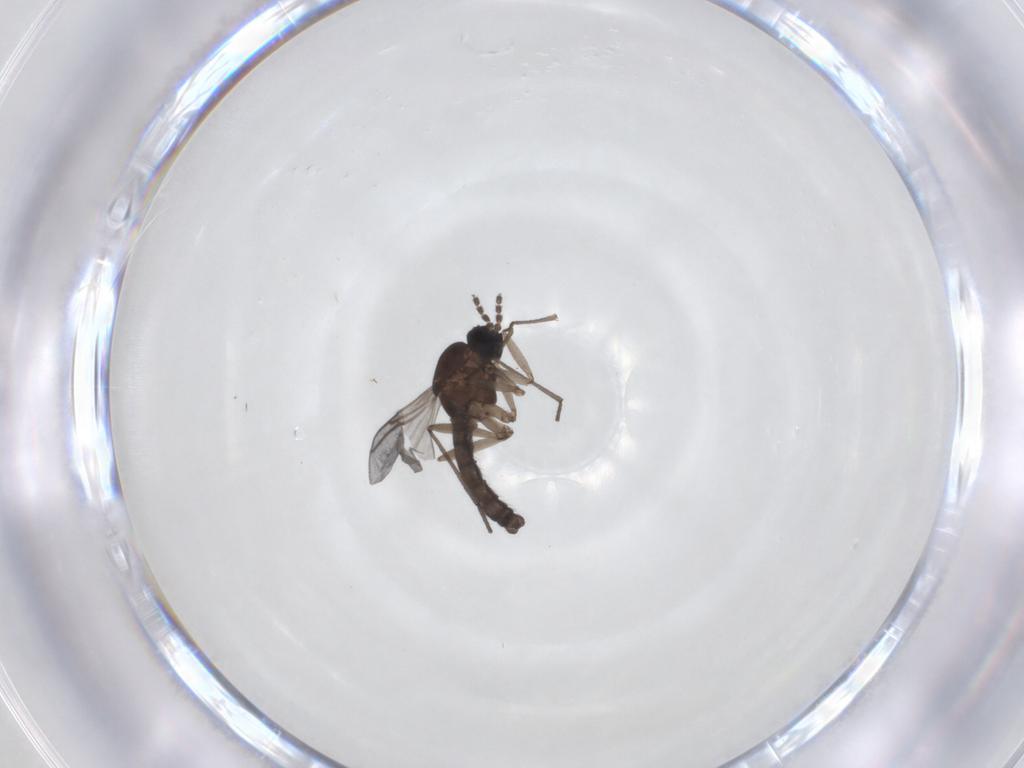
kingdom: Animalia
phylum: Arthropoda
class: Insecta
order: Diptera
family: Sciaridae
